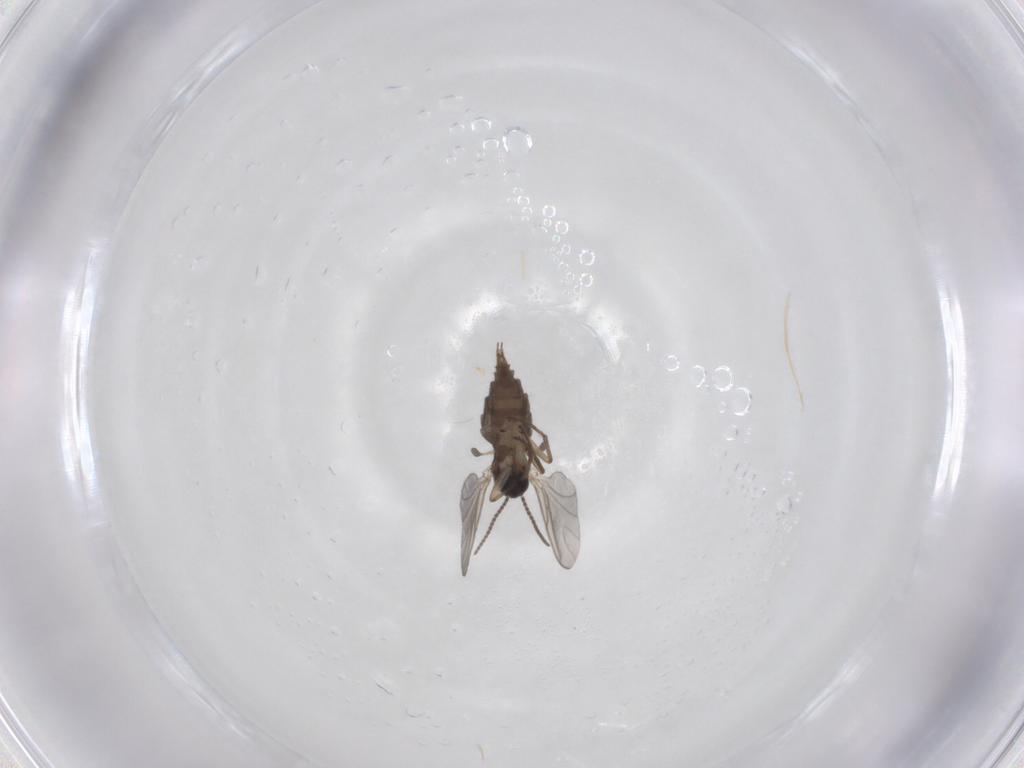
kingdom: Animalia
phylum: Arthropoda
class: Insecta
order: Diptera
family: Sciaridae
